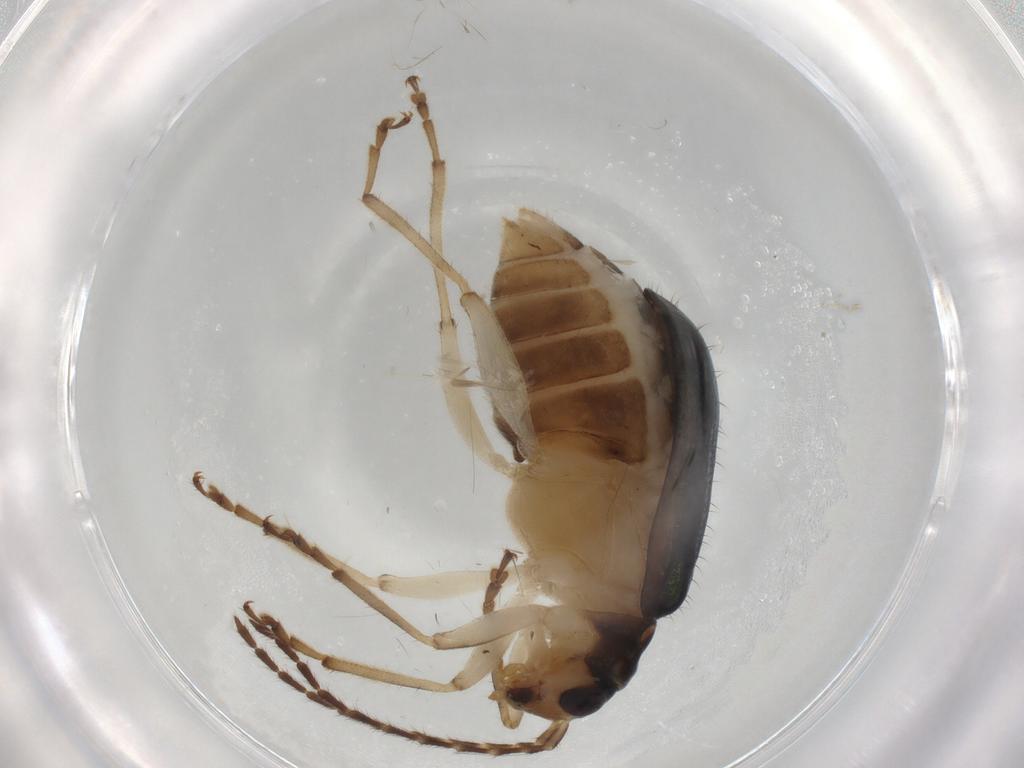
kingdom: Animalia
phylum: Arthropoda
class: Insecta
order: Coleoptera
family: Chrysomelidae
